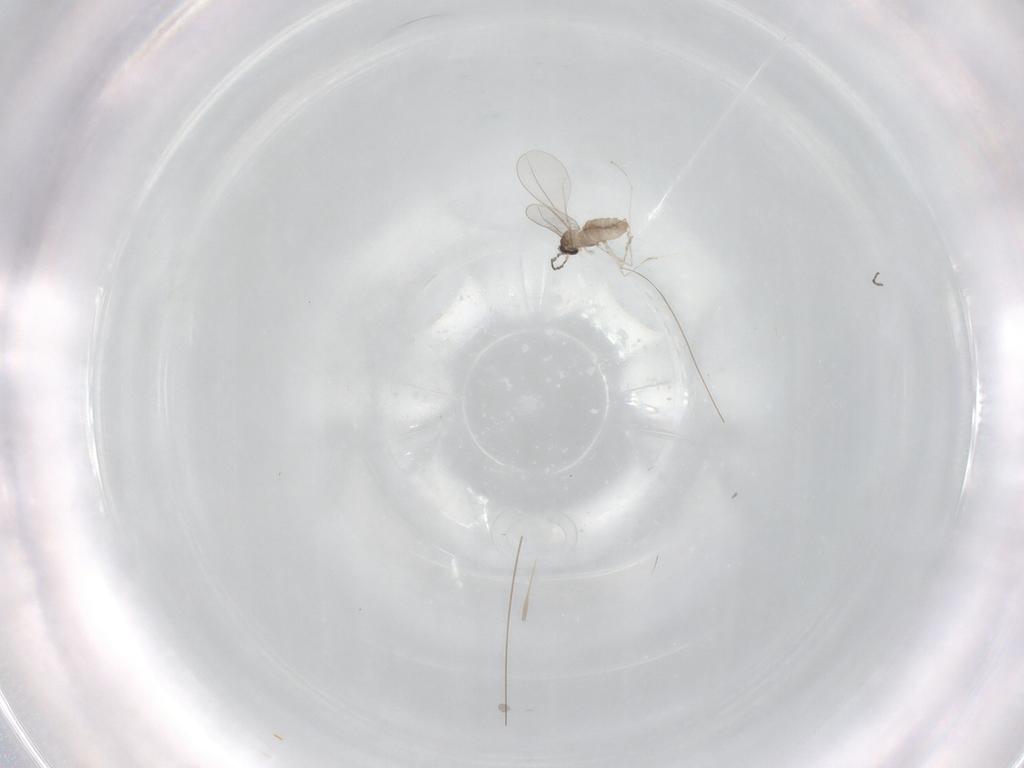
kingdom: Animalia
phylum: Arthropoda
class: Insecta
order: Diptera
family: Cecidomyiidae
